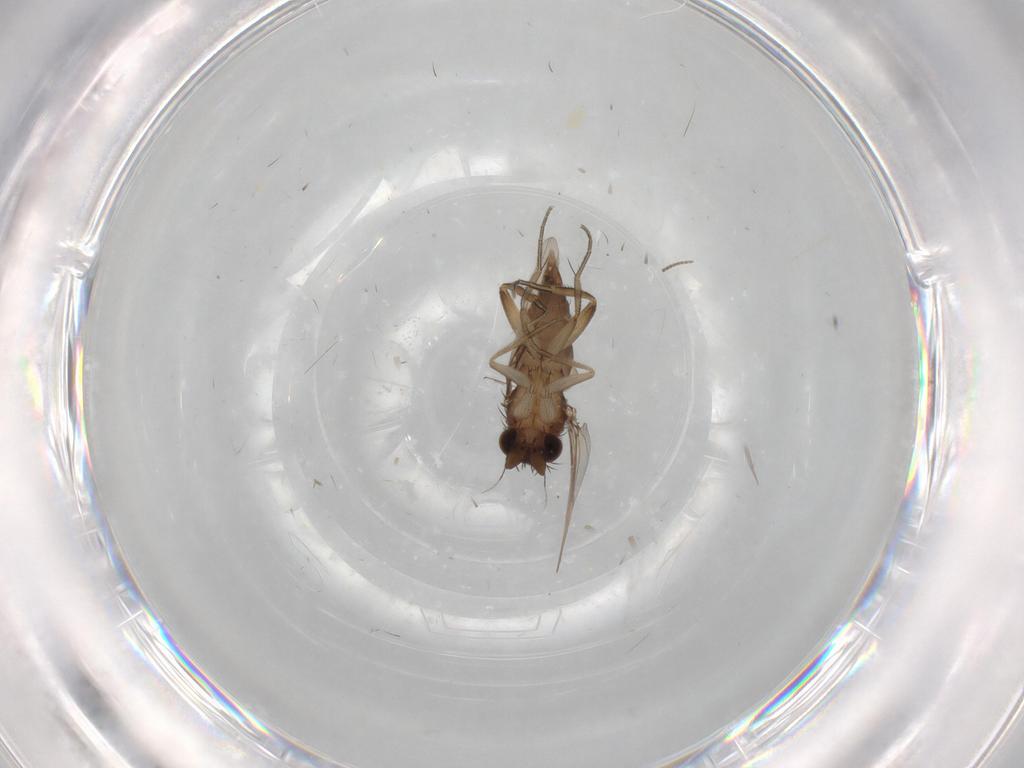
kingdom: Animalia
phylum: Arthropoda
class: Insecta
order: Diptera
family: Phoridae
